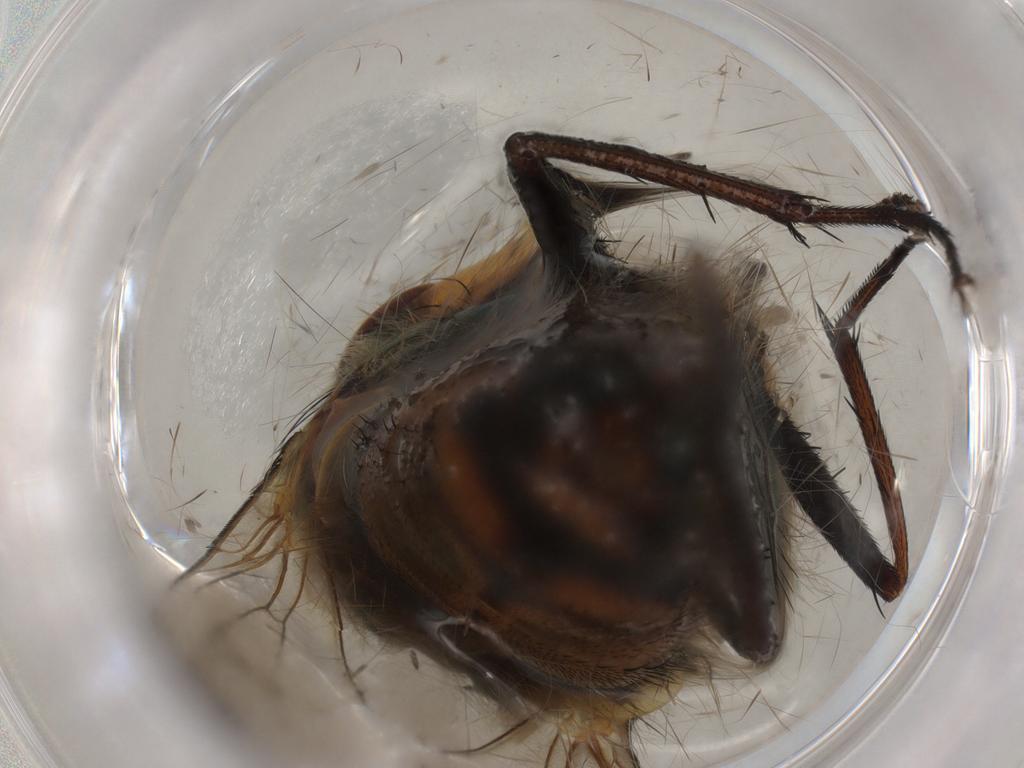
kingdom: Animalia
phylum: Arthropoda
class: Insecta
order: Diptera
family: Calliphoridae
